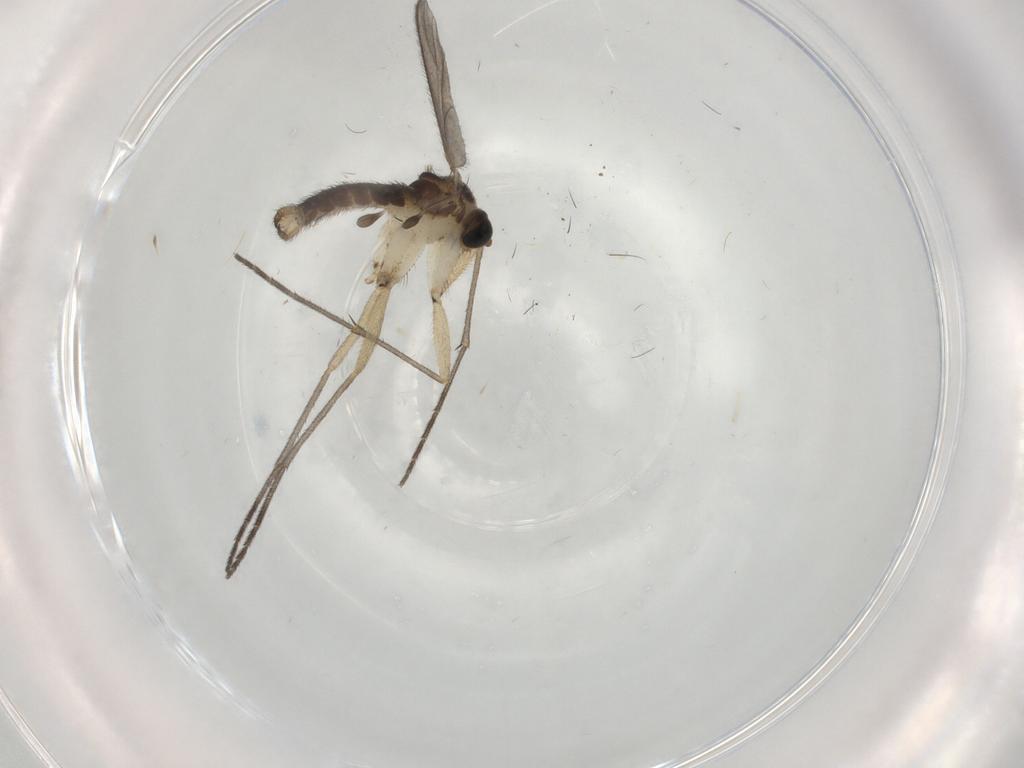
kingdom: Animalia
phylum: Arthropoda
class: Insecta
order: Diptera
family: Sciaridae
